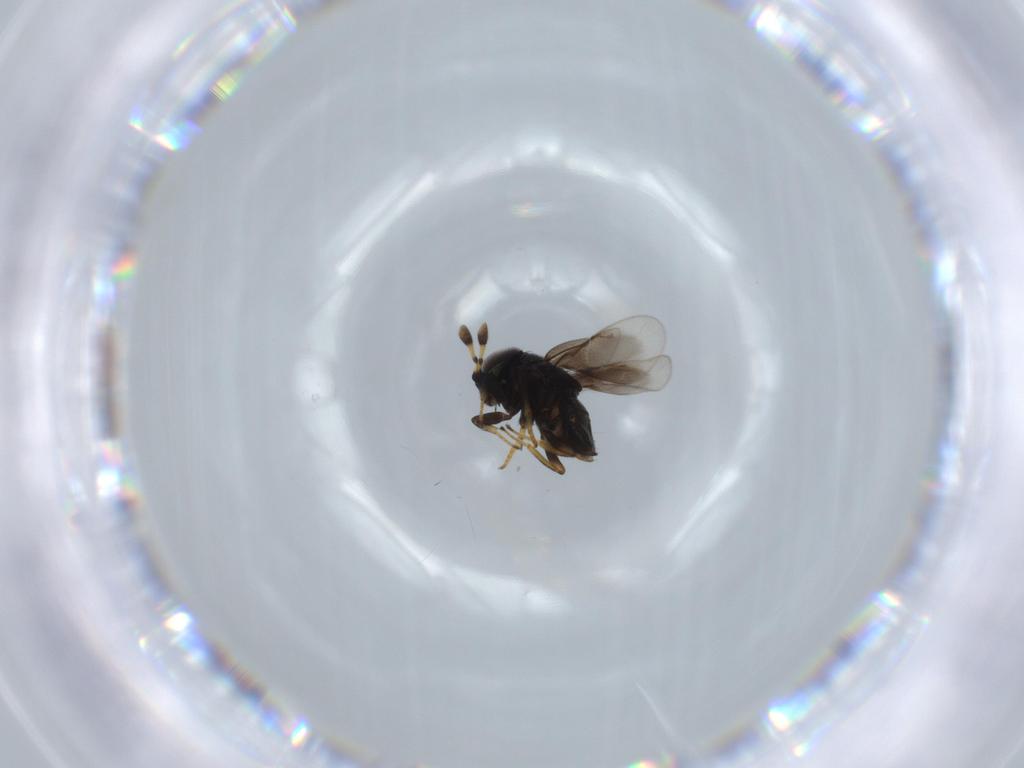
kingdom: Animalia
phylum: Arthropoda
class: Insecta
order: Hymenoptera
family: Encyrtidae
